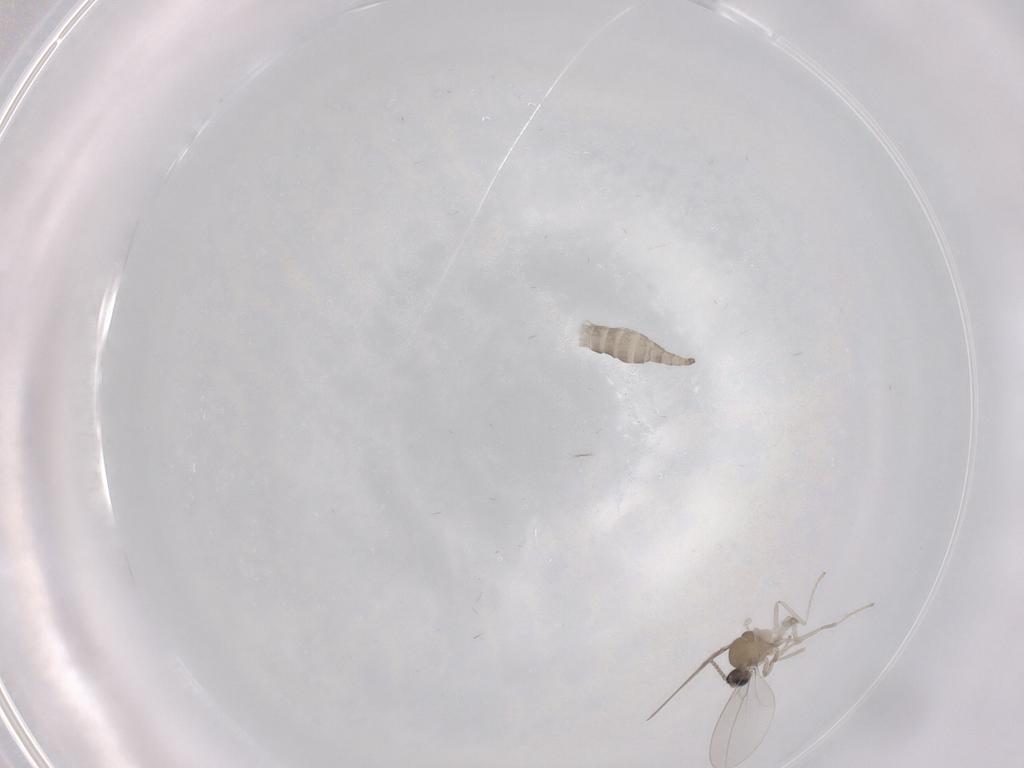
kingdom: Animalia
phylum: Arthropoda
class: Insecta
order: Diptera
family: Cecidomyiidae
